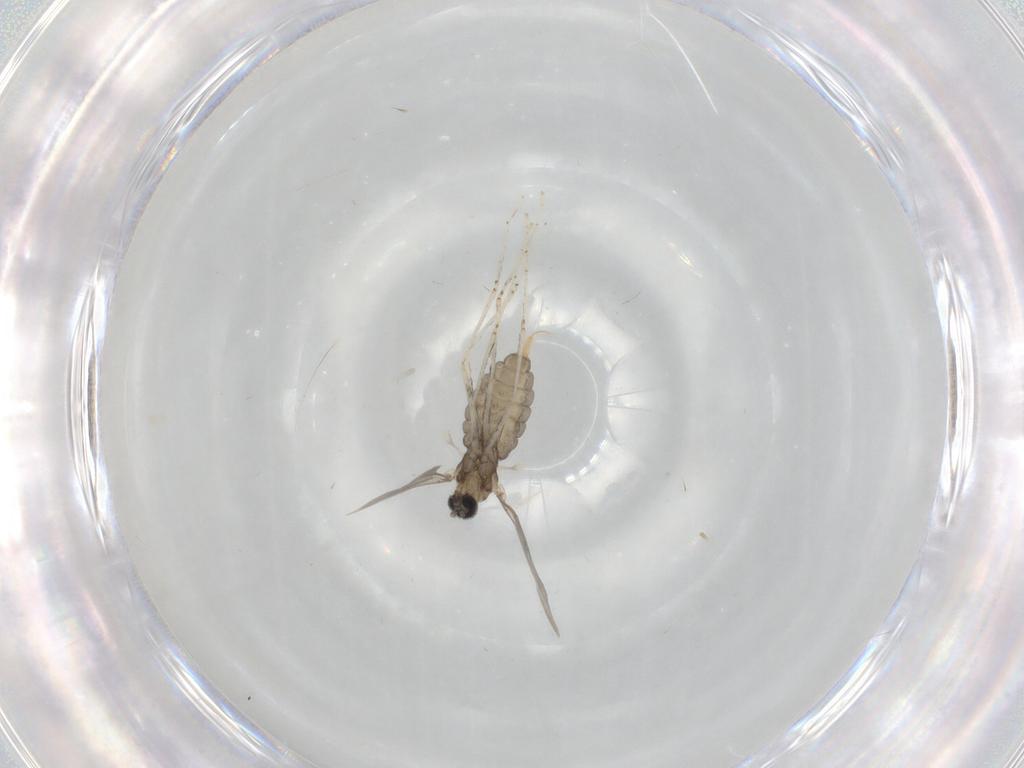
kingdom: Animalia
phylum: Arthropoda
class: Insecta
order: Diptera
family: Cecidomyiidae
